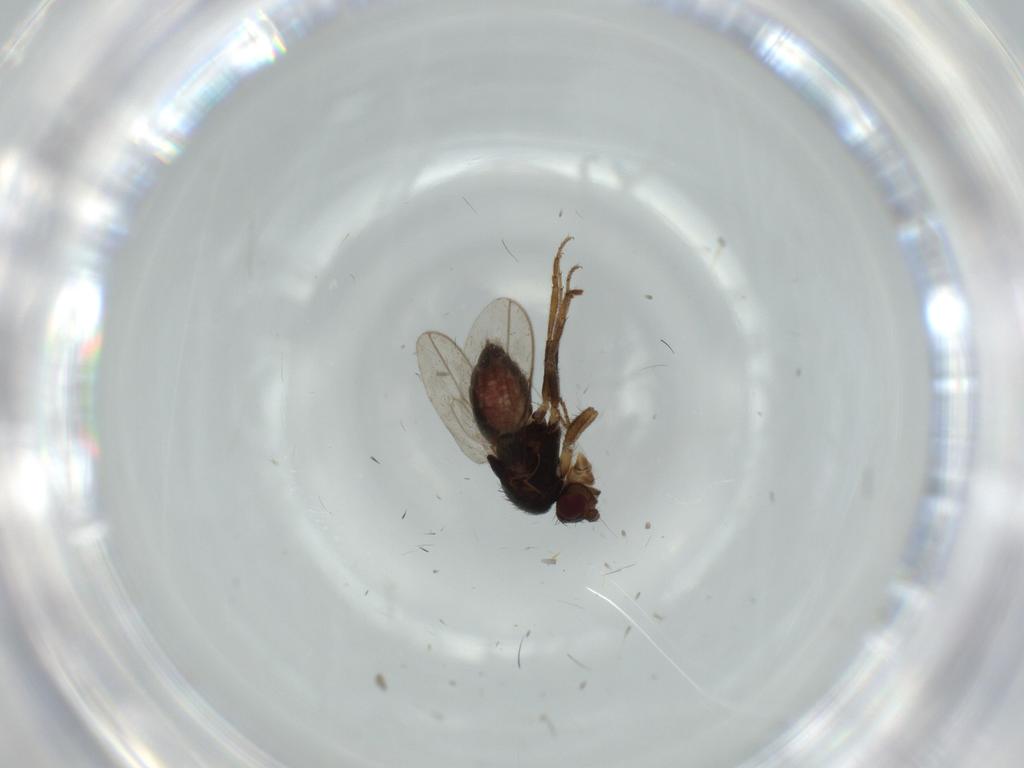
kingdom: Animalia
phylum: Arthropoda
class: Insecta
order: Diptera
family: Sphaeroceridae
